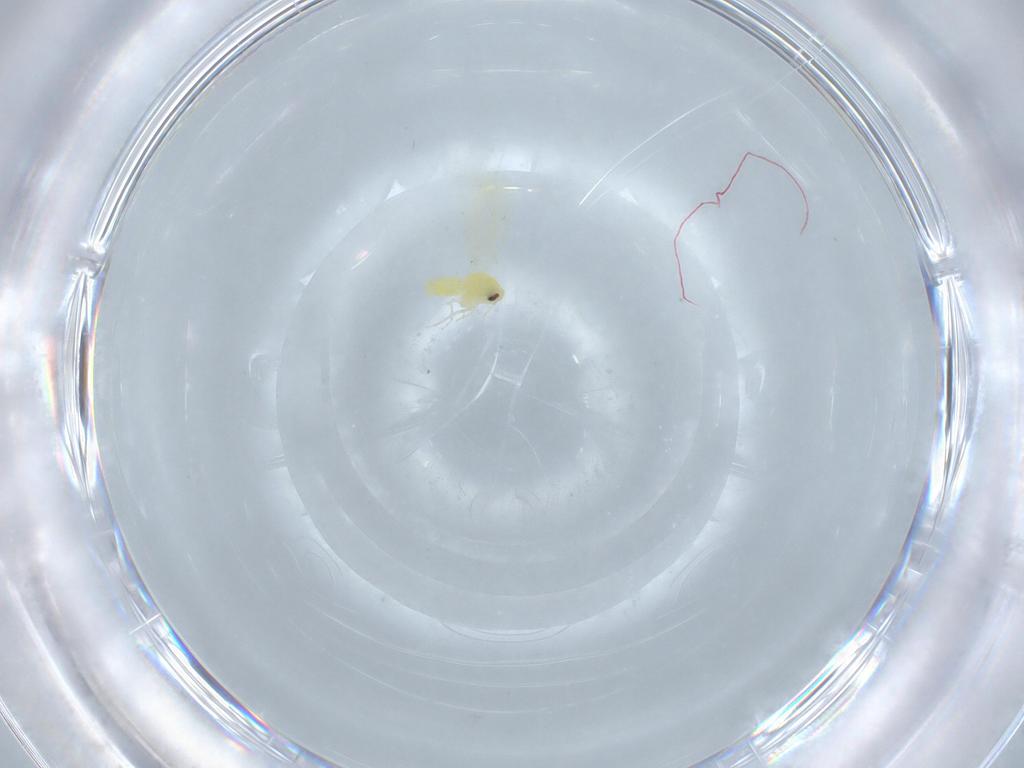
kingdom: Animalia
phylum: Arthropoda
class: Insecta
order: Hemiptera
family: Aleyrodidae
